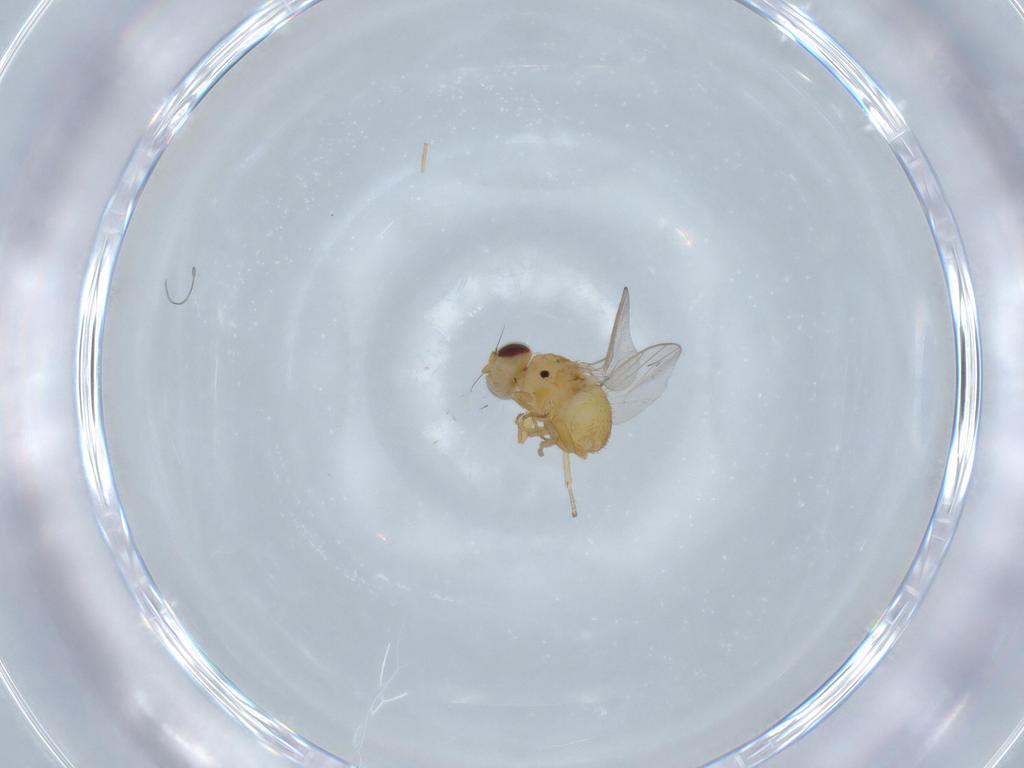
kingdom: Animalia
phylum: Arthropoda
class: Insecta
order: Diptera
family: Chloropidae
